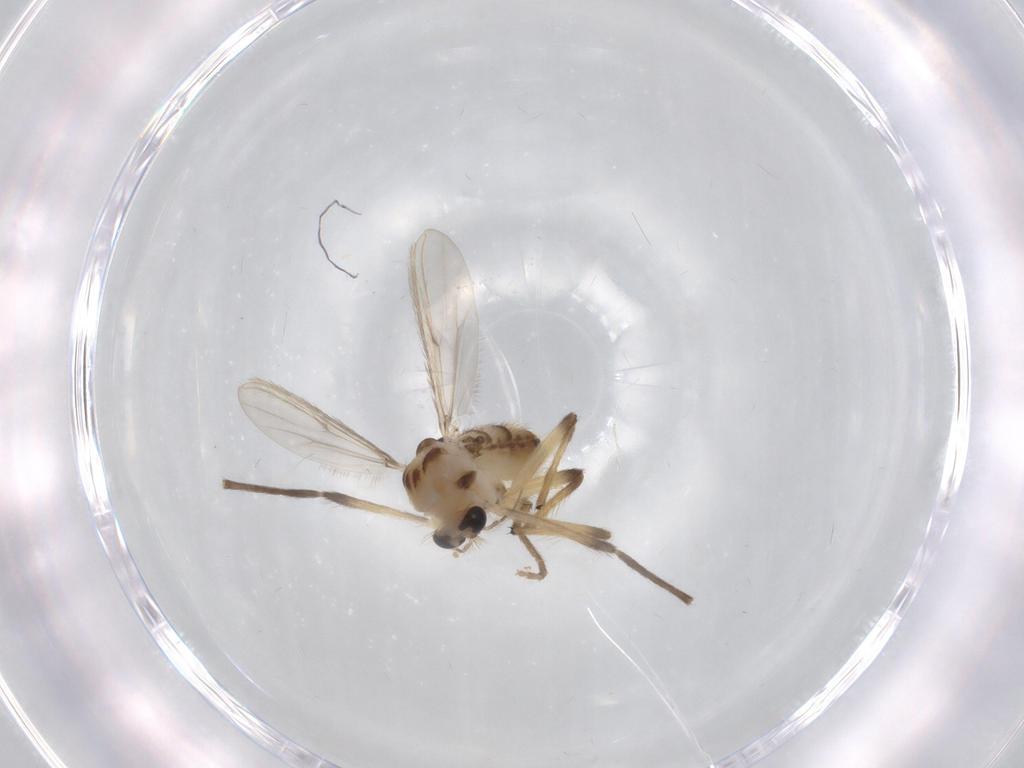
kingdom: Animalia
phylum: Arthropoda
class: Insecta
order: Diptera
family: Chironomidae
